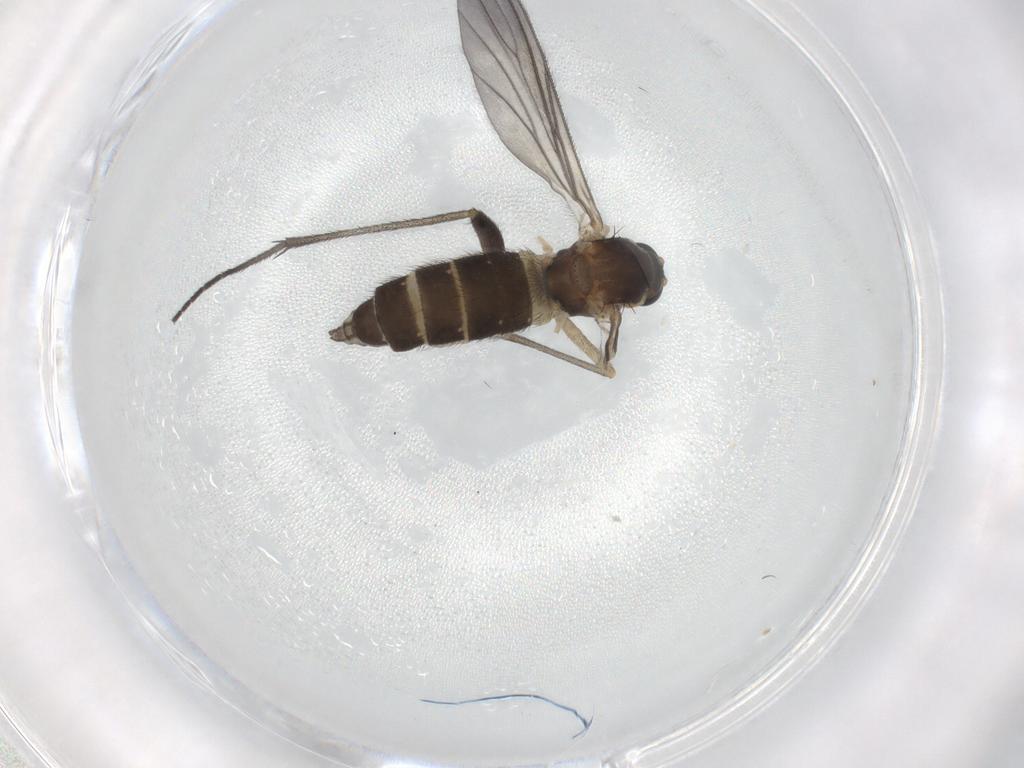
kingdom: Animalia
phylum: Arthropoda
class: Insecta
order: Diptera
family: Sciaridae
